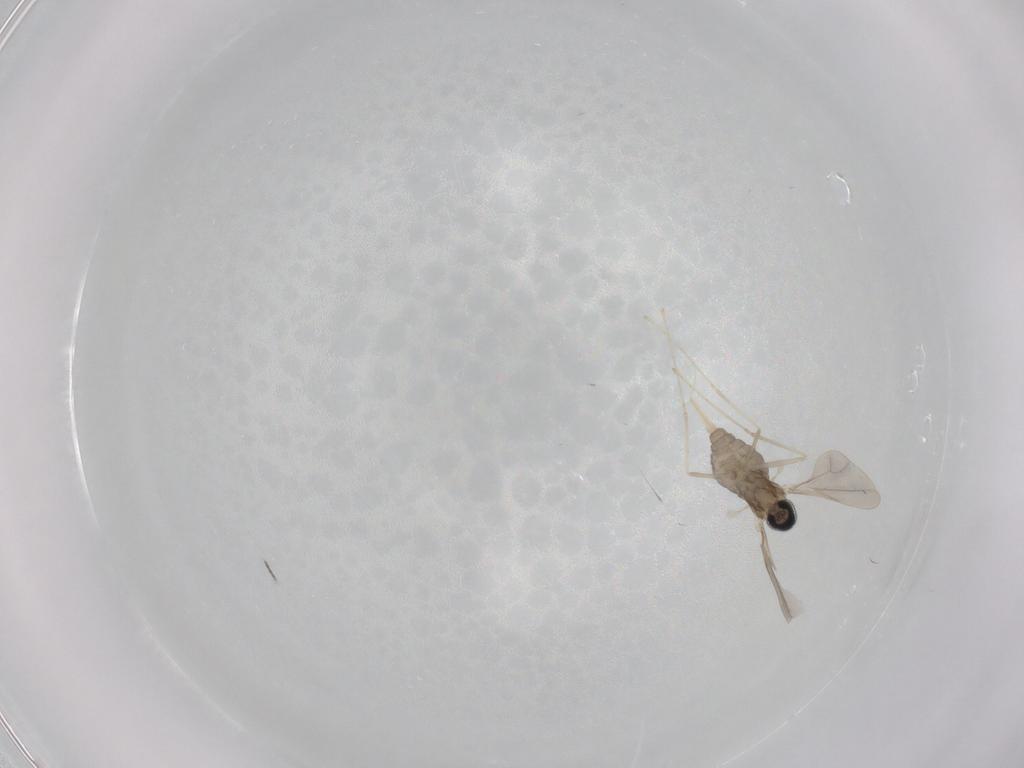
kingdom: Animalia
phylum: Arthropoda
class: Insecta
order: Diptera
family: Cecidomyiidae
